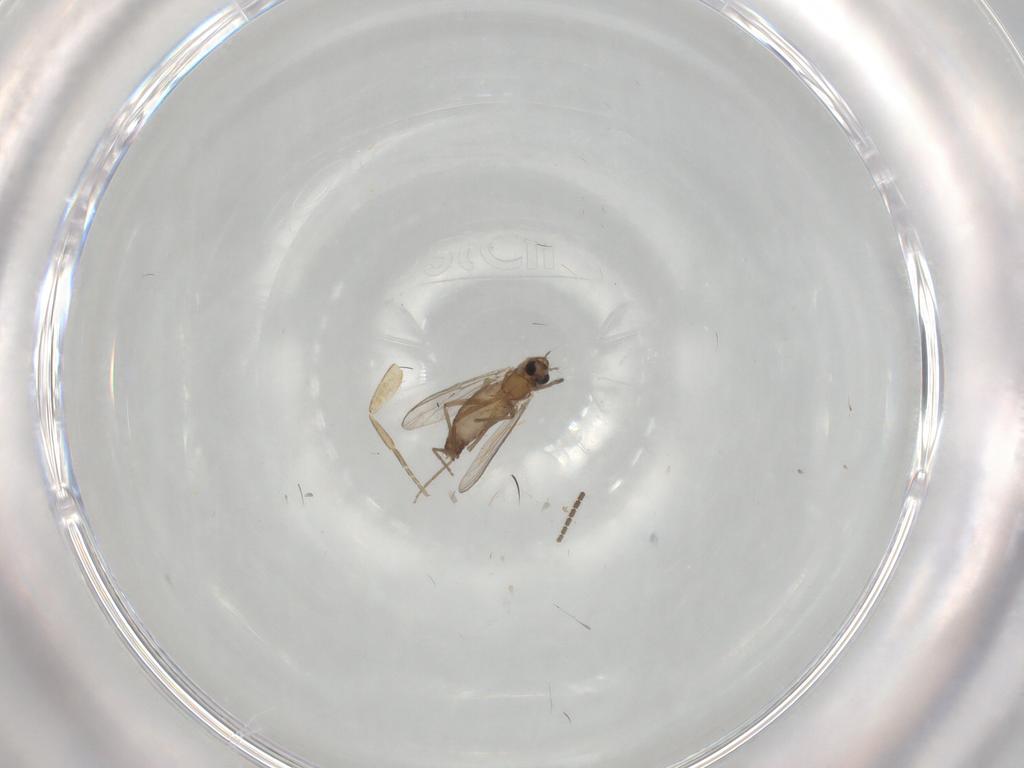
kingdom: Animalia
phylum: Arthropoda
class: Insecta
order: Diptera
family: Chironomidae
